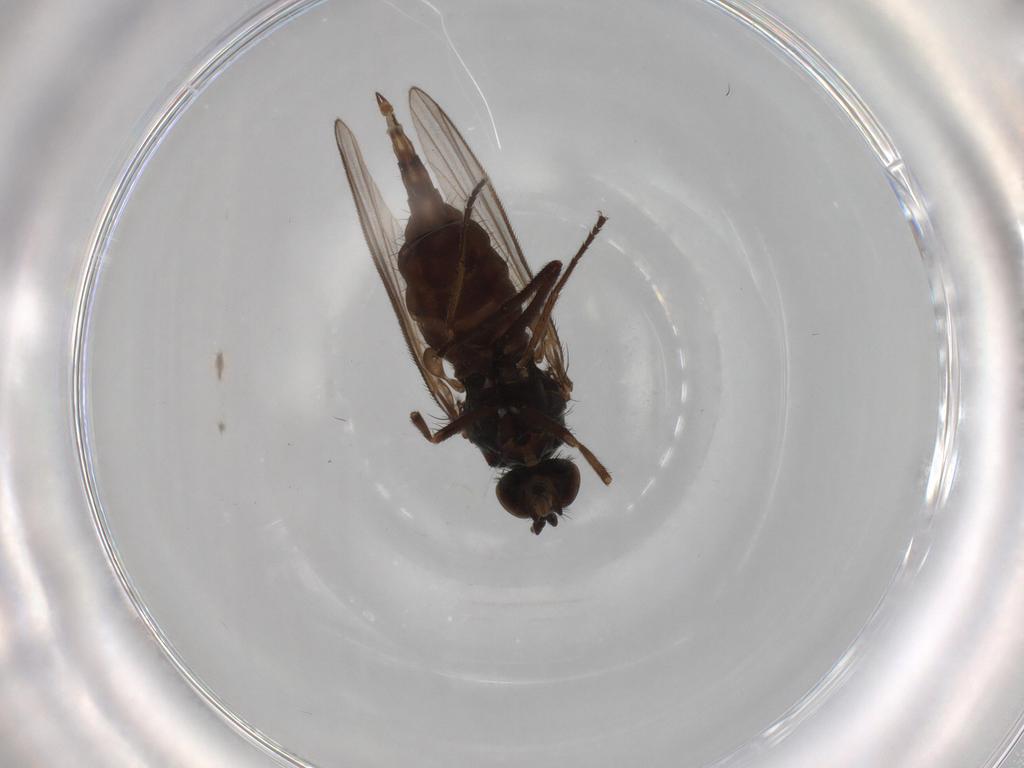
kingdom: Animalia
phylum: Arthropoda
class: Insecta
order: Diptera
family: Dolichopodidae
